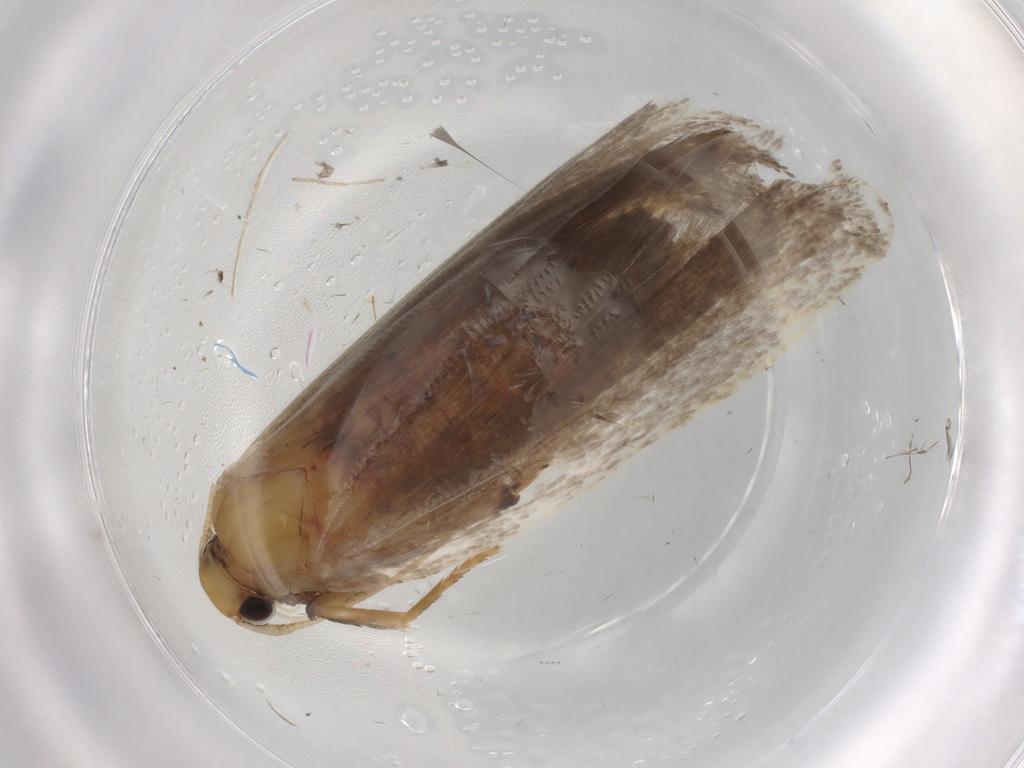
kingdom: Animalia
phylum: Arthropoda
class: Insecta
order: Lepidoptera
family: Lecithoceridae
